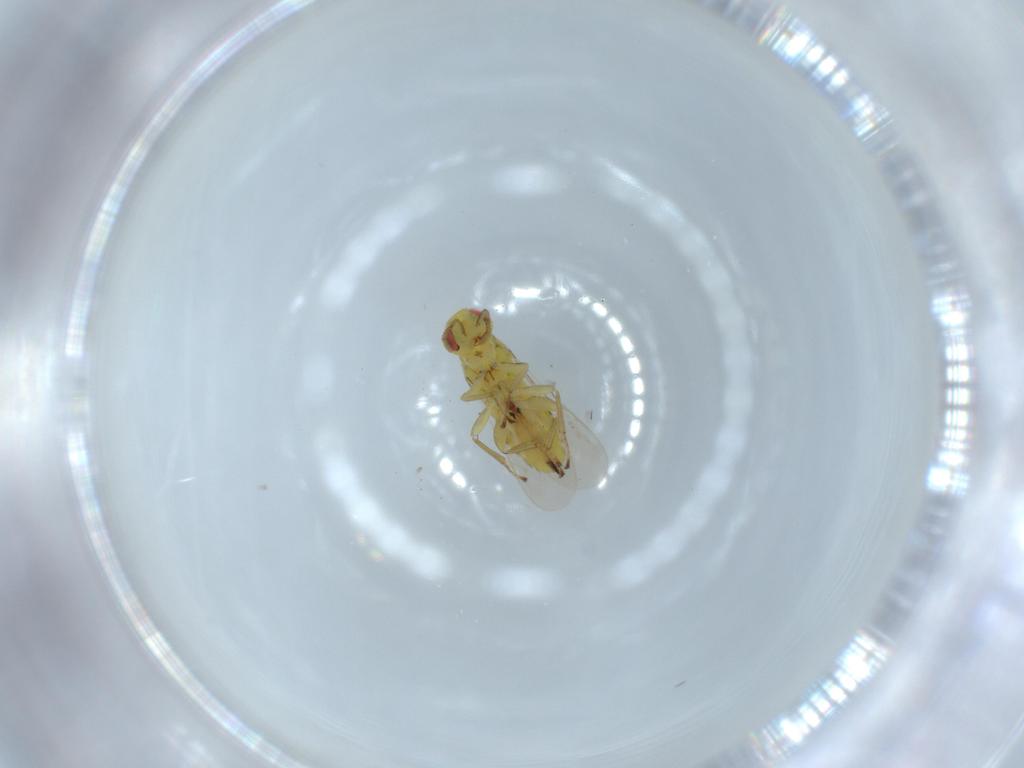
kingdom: Animalia
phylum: Arthropoda
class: Insecta
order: Hymenoptera
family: Trichogrammatidae
